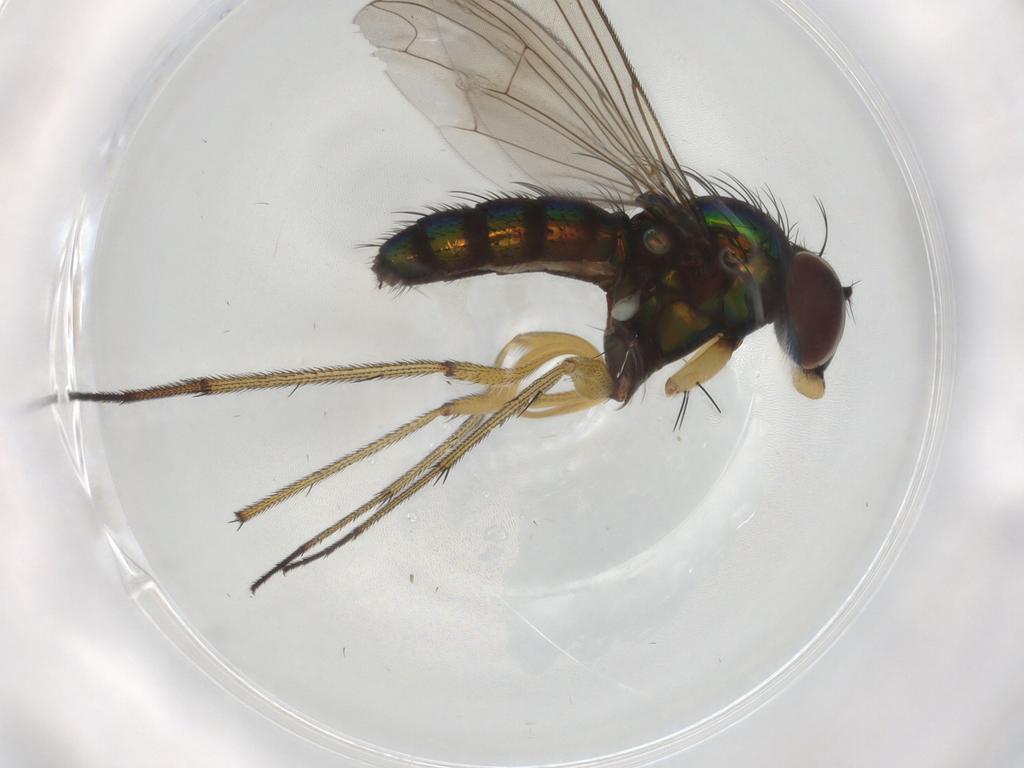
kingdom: Animalia
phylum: Arthropoda
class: Insecta
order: Diptera
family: Dolichopodidae
